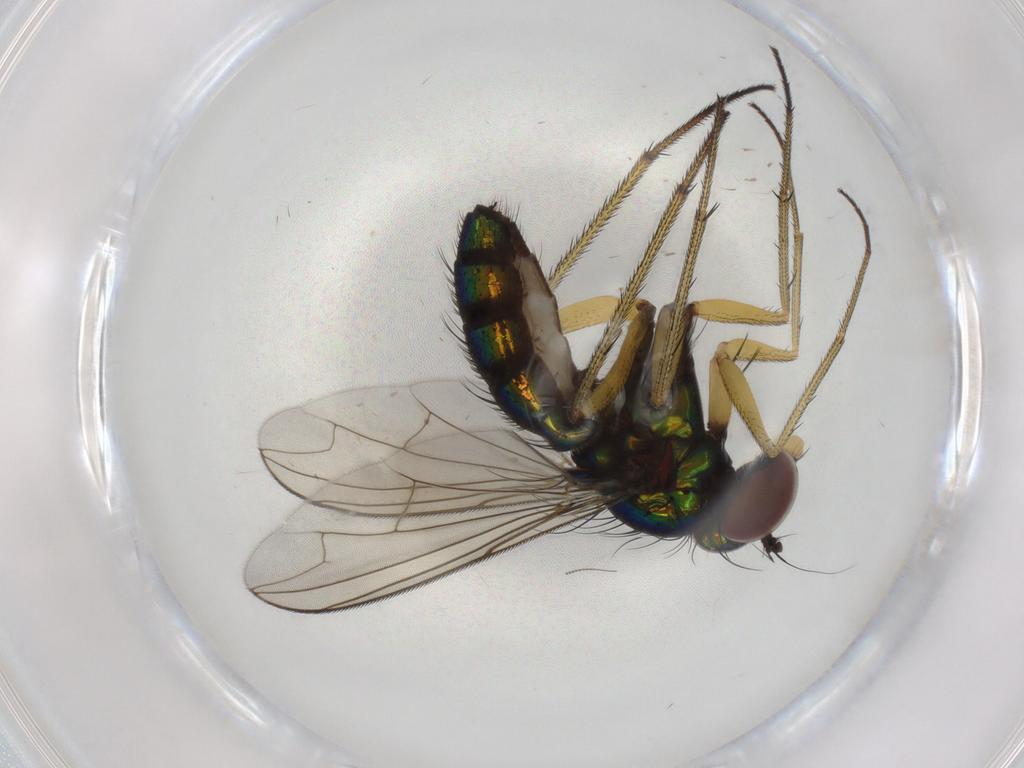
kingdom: Animalia
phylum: Arthropoda
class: Insecta
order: Diptera
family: Dolichopodidae
